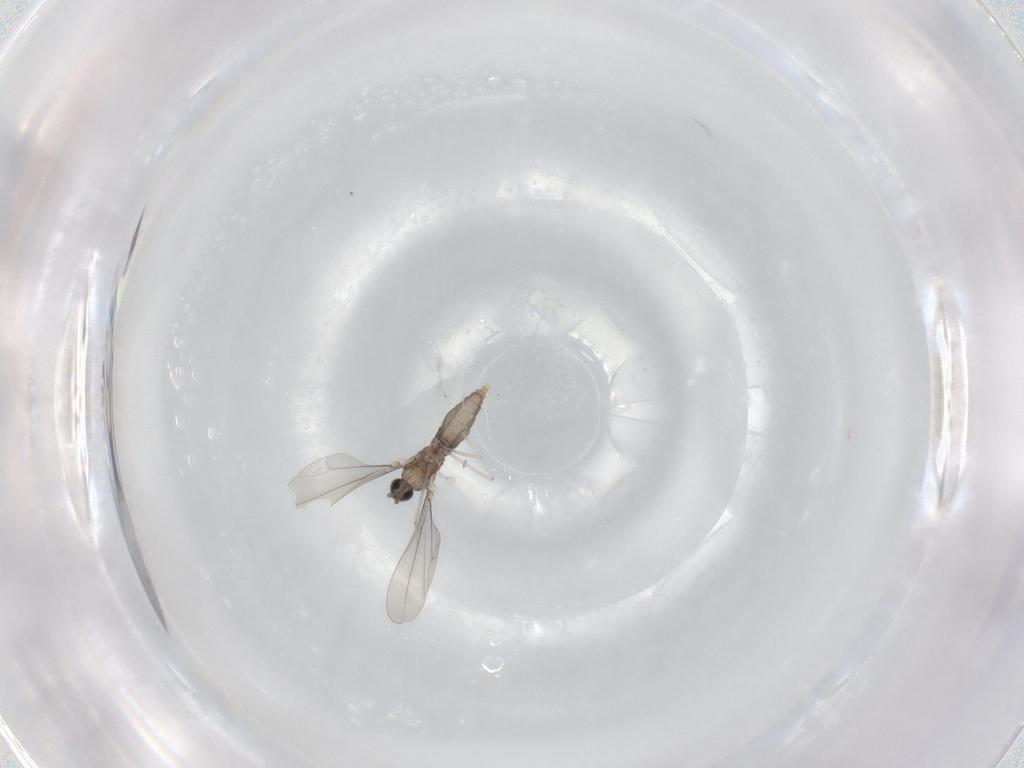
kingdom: Animalia
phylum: Arthropoda
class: Insecta
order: Diptera
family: Cecidomyiidae
